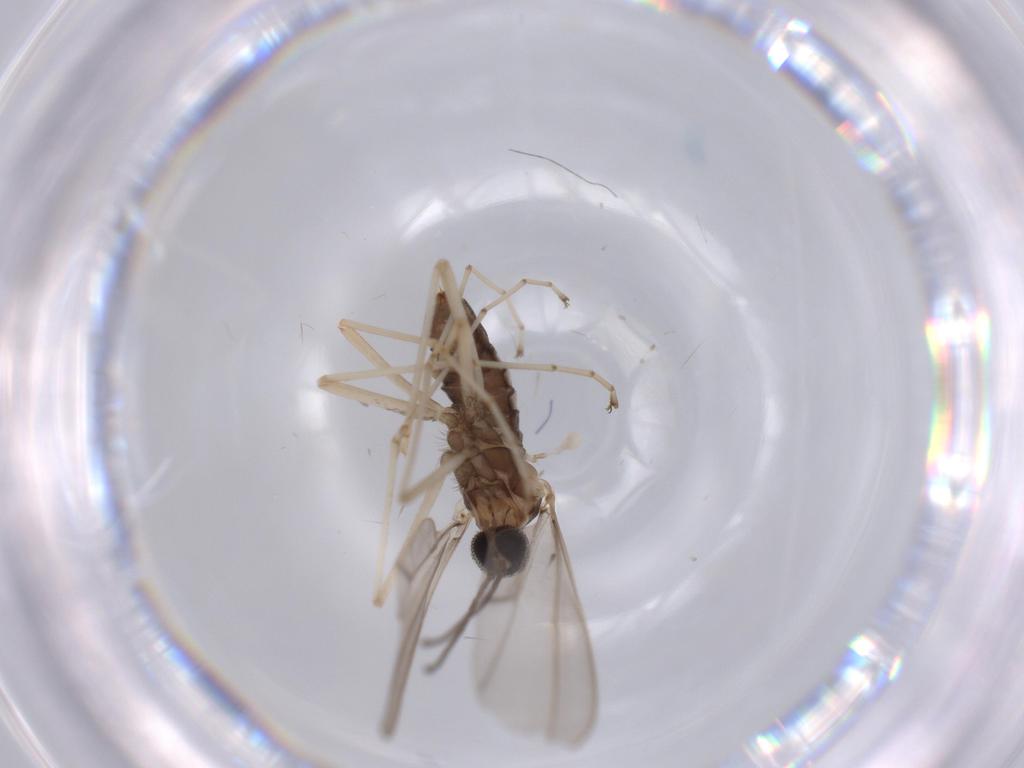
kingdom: Animalia
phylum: Arthropoda
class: Insecta
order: Diptera
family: Cecidomyiidae
